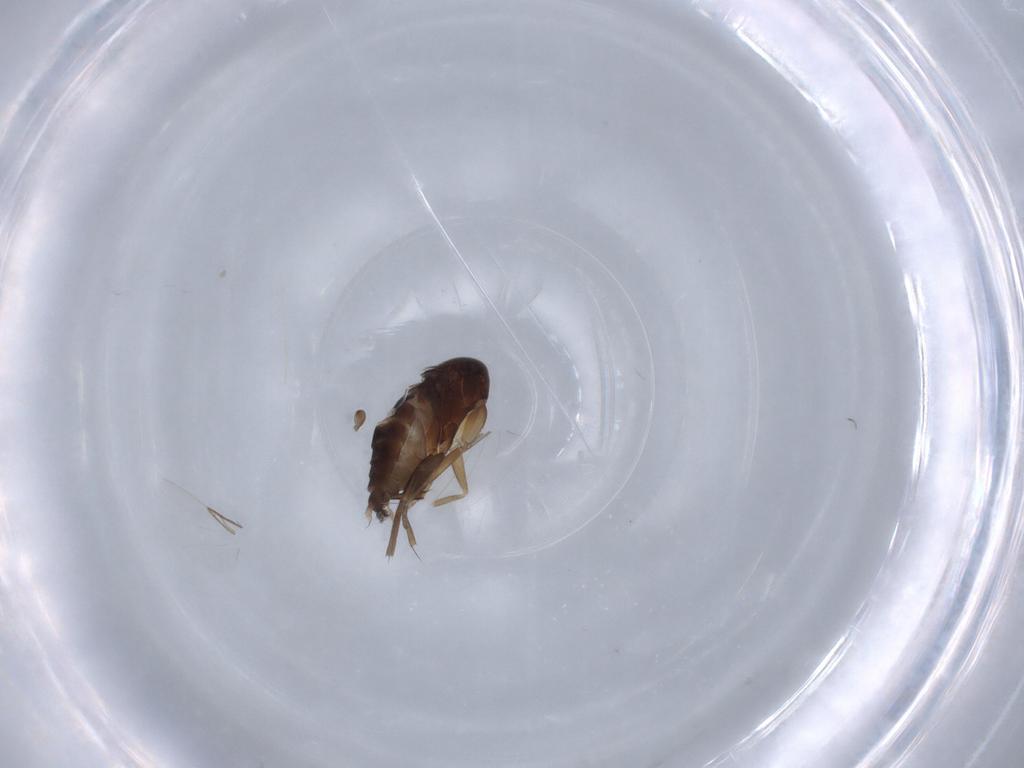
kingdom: Animalia
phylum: Arthropoda
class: Insecta
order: Diptera
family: Phoridae
